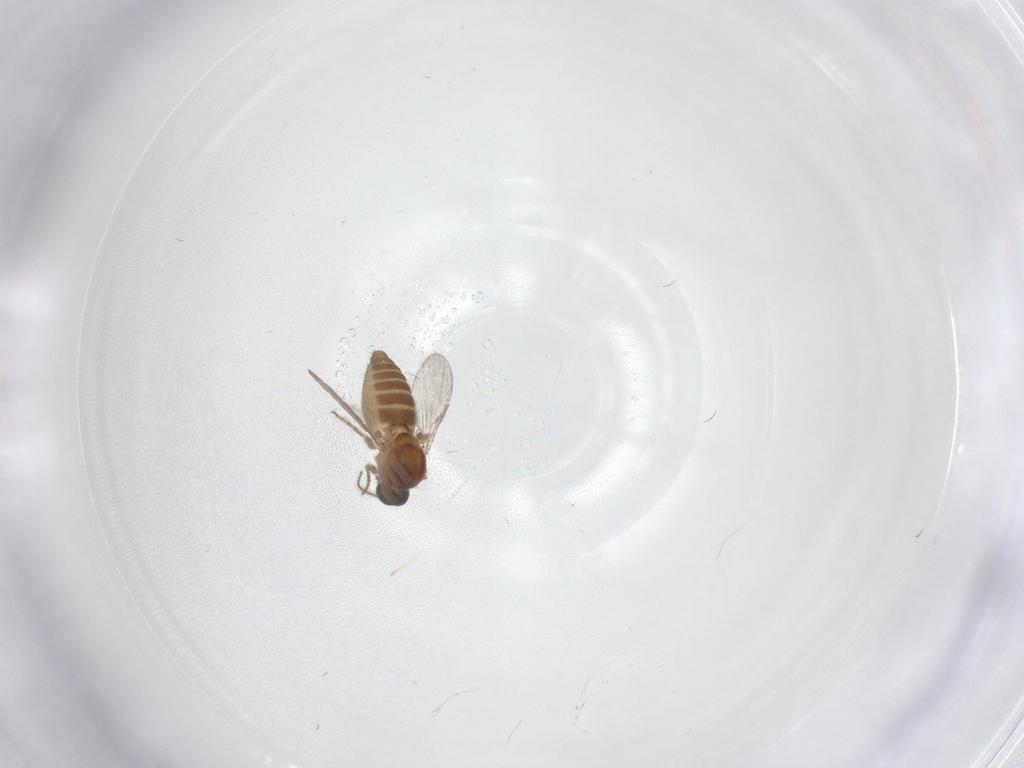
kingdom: Animalia
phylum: Arthropoda
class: Insecta
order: Diptera
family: Ceratopogonidae
